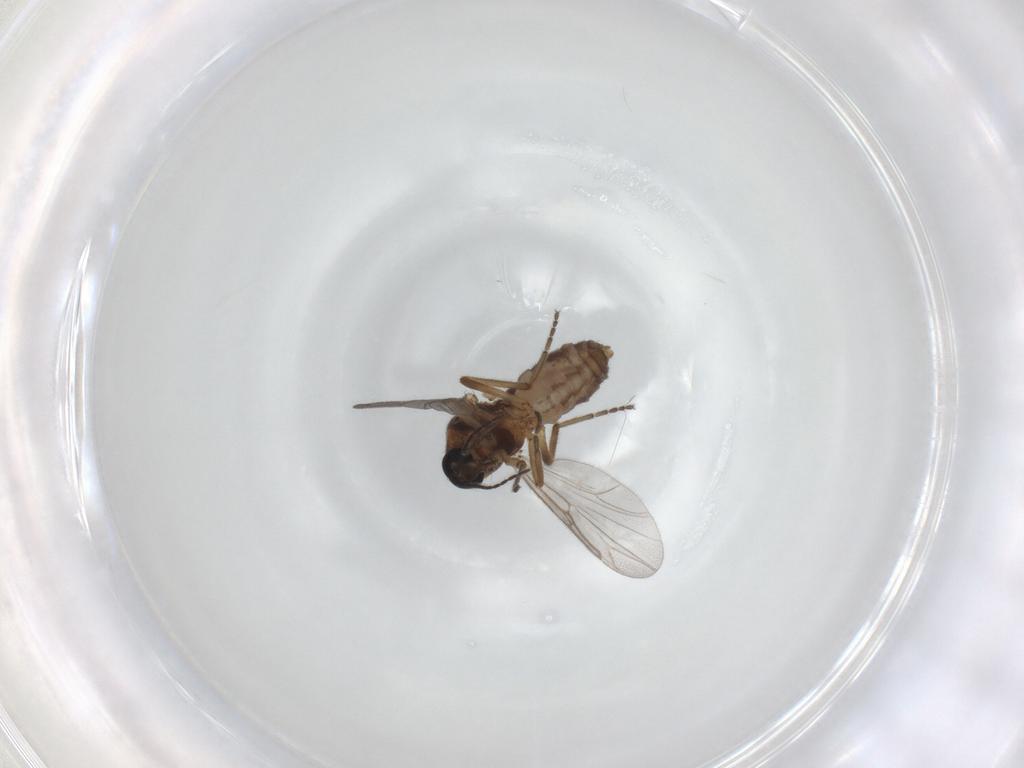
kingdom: Animalia
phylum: Arthropoda
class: Insecta
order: Diptera
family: Ceratopogonidae
